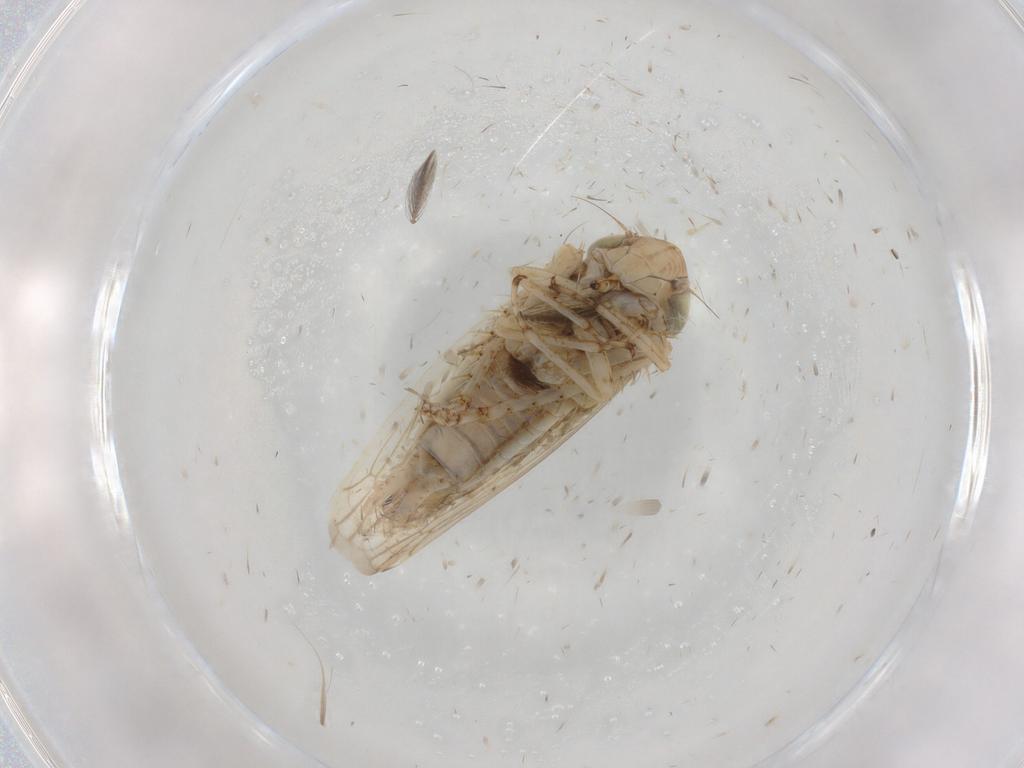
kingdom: Animalia
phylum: Arthropoda
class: Insecta
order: Hemiptera
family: Cicadellidae
